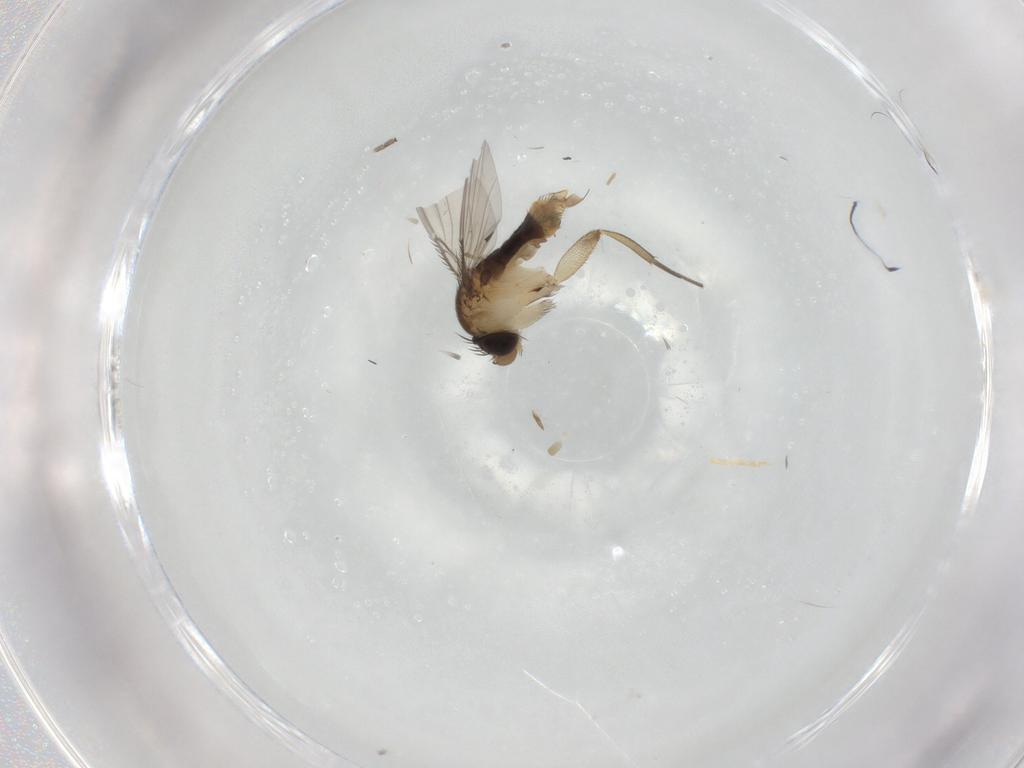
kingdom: Animalia
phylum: Arthropoda
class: Insecta
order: Diptera
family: Phoridae
